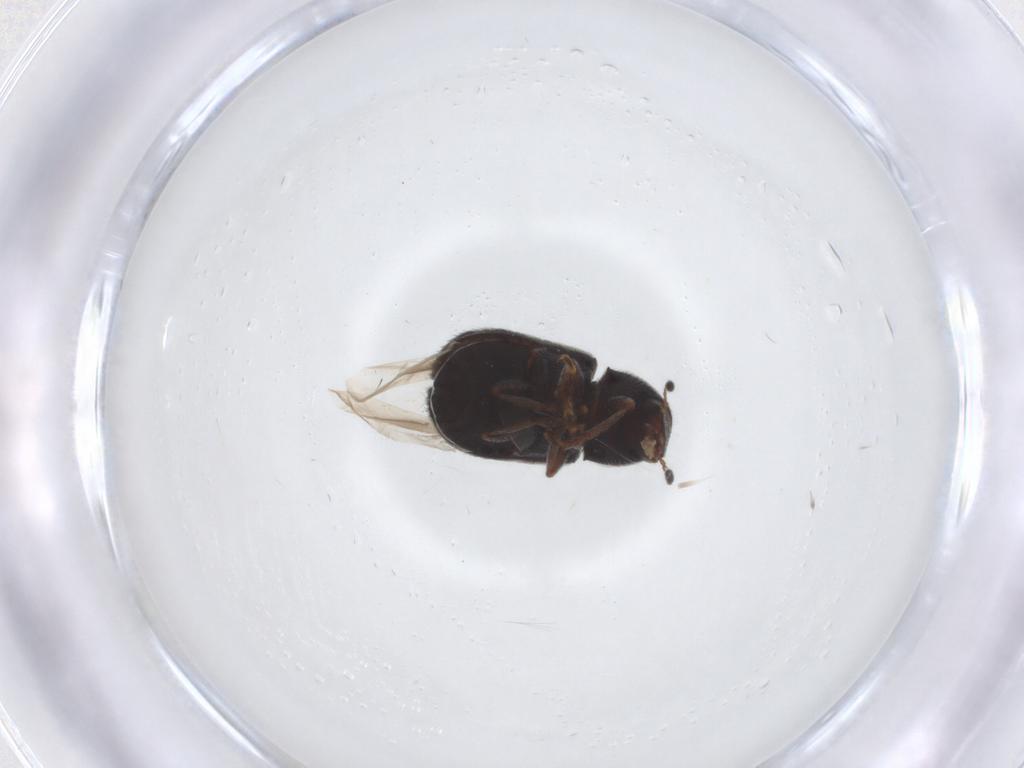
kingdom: Animalia
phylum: Arthropoda
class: Insecta
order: Coleoptera
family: Anthribidae
